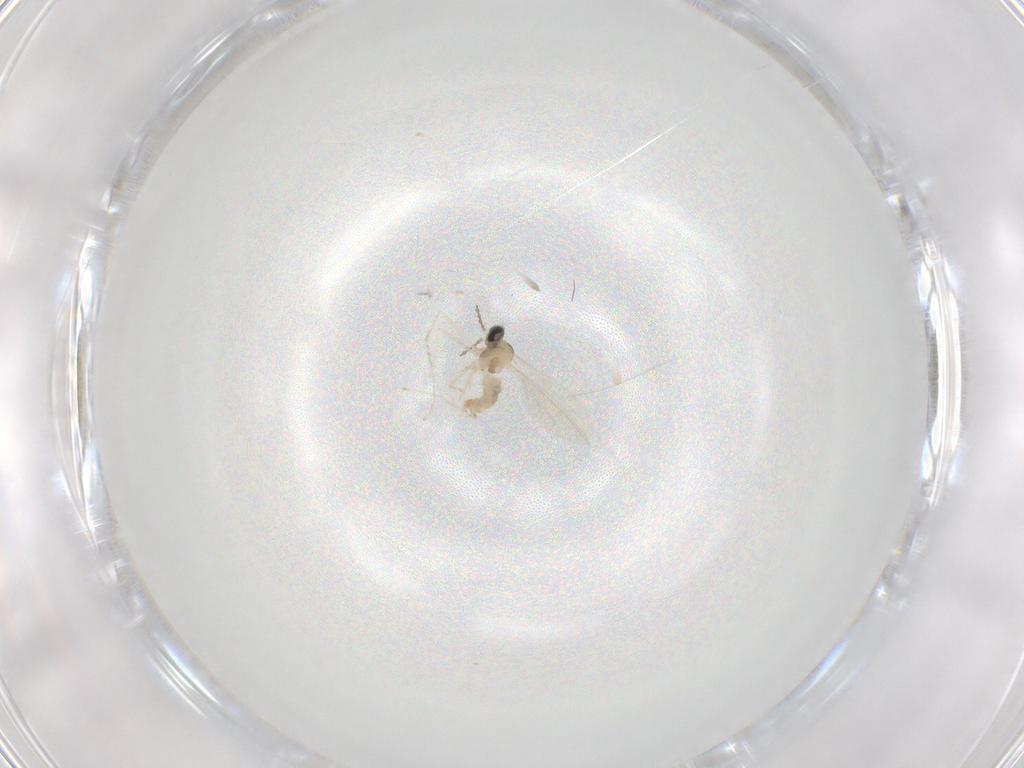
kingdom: Animalia
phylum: Arthropoda
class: Insecta
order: Diptera
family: Cecidomyiidae
